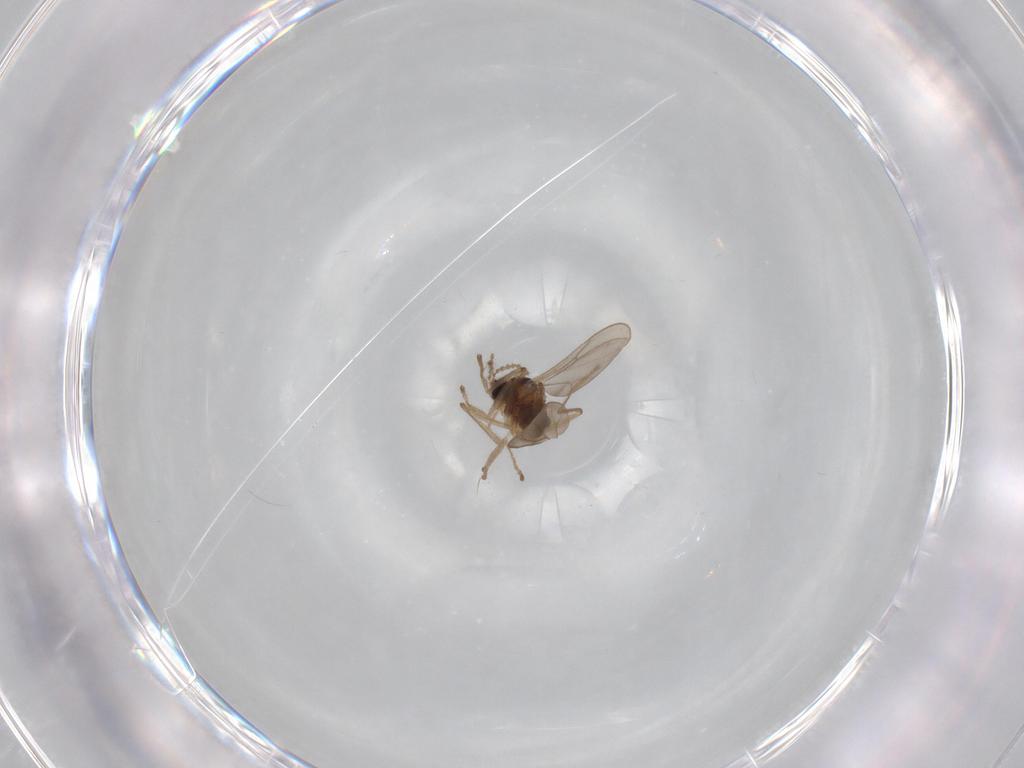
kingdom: Animalia
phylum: Arthropoda
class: Insecta
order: Diptera
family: Cecidomyiidae
